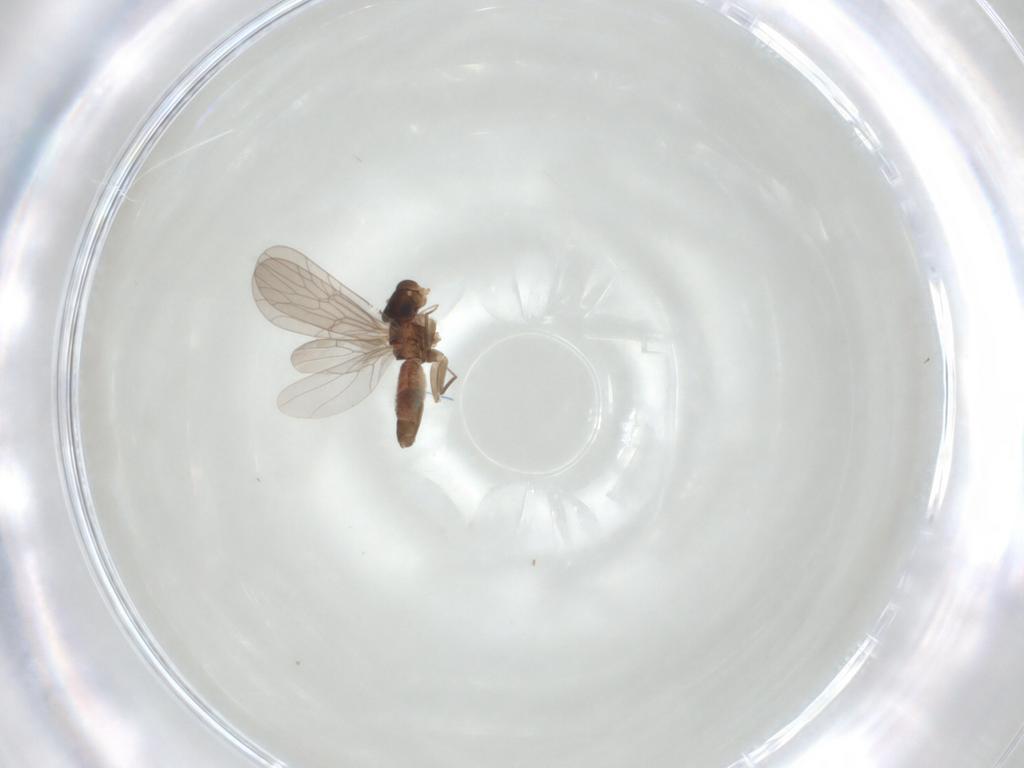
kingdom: Animalia
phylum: Arthropoda
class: Insecta
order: Psocodea
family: Lepidopsocidae
